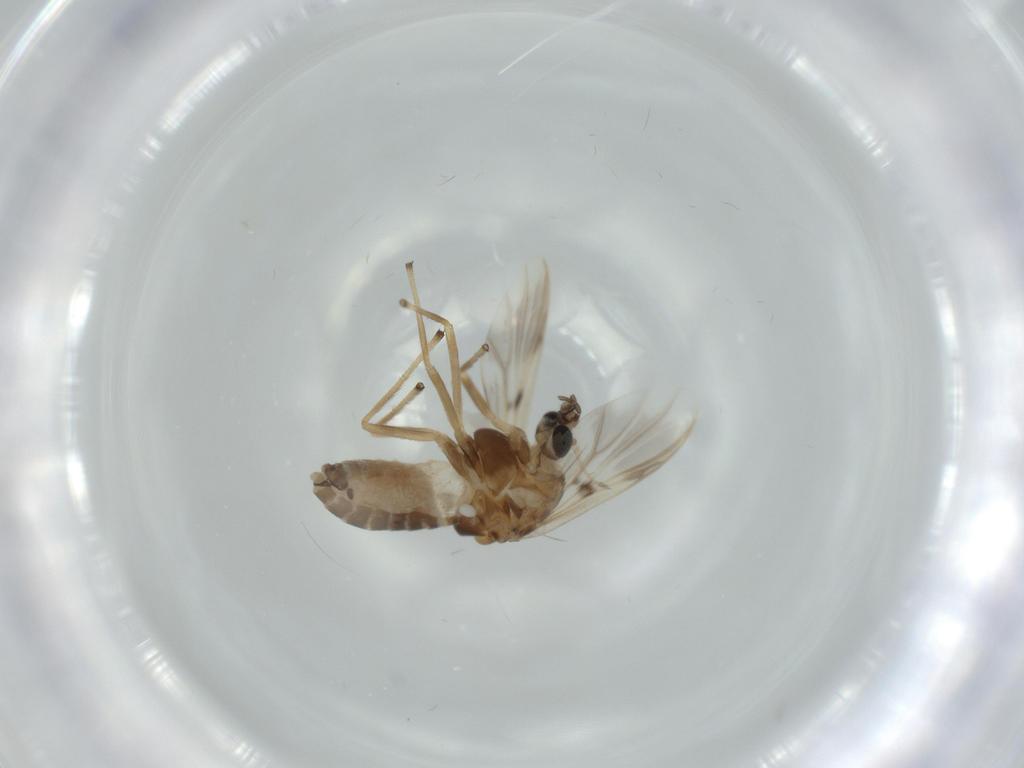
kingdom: Animalia
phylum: Arthropoda
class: Insecta
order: Diptera
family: Chironomidae
